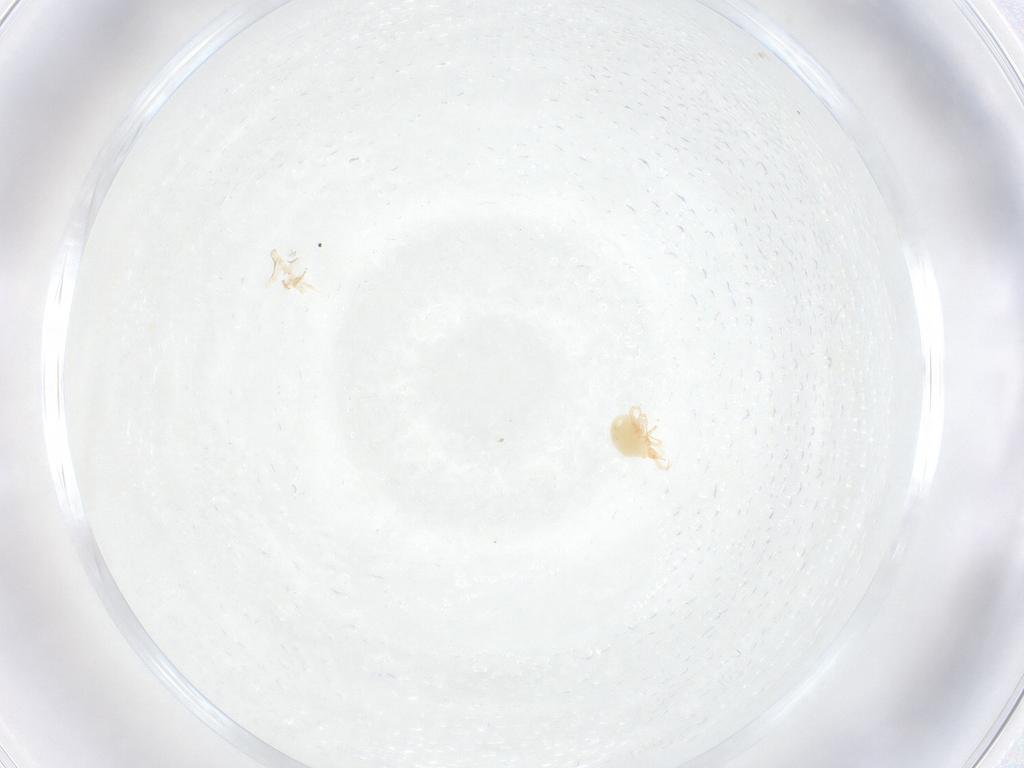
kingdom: Animalia
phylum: Arthropoda
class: Arachnida
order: Trombidiformes
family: Cunaxidae
